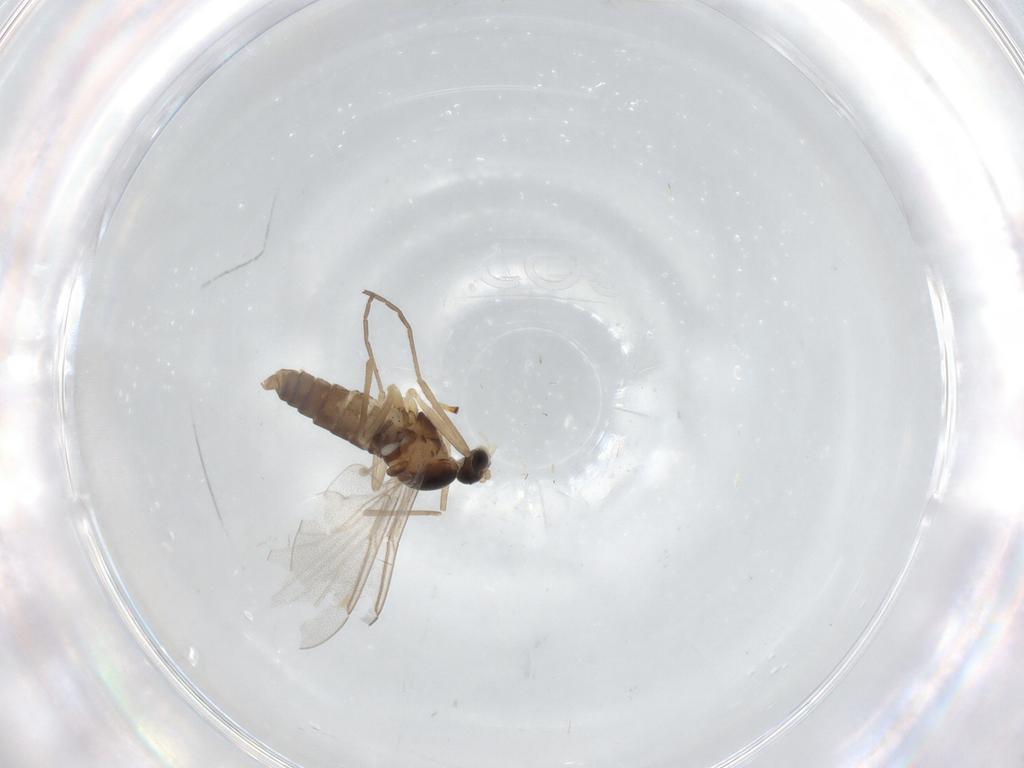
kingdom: Animalia
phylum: Arthropoda
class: Insecta
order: Diptera
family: Cecidomyiidae
